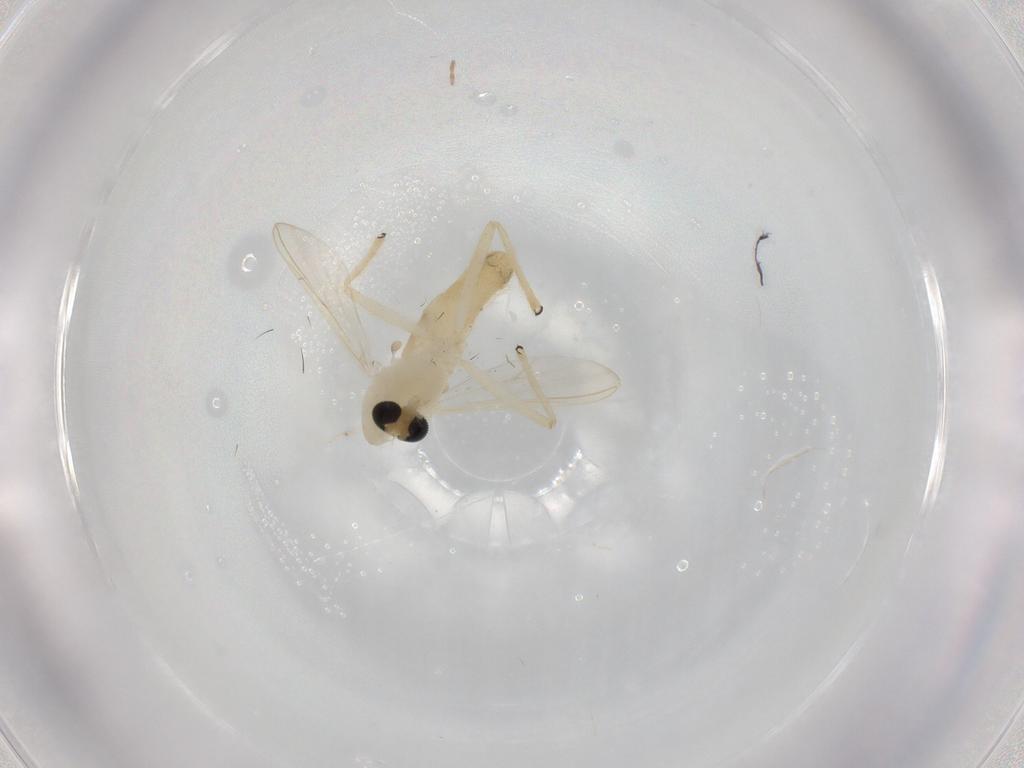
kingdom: Animalia
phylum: Arthropoda
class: Insecta
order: Diptera
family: Chironomidae
